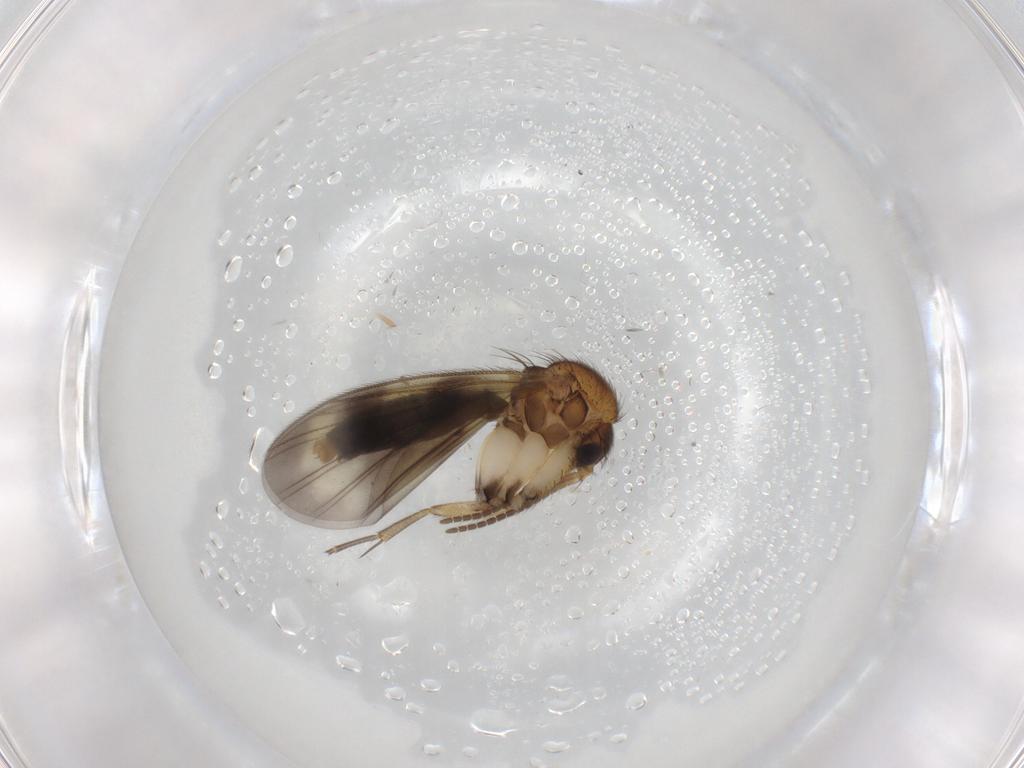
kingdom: Animalia
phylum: Arthropoda
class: Insecta
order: Diptera
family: Mycetophilidae
